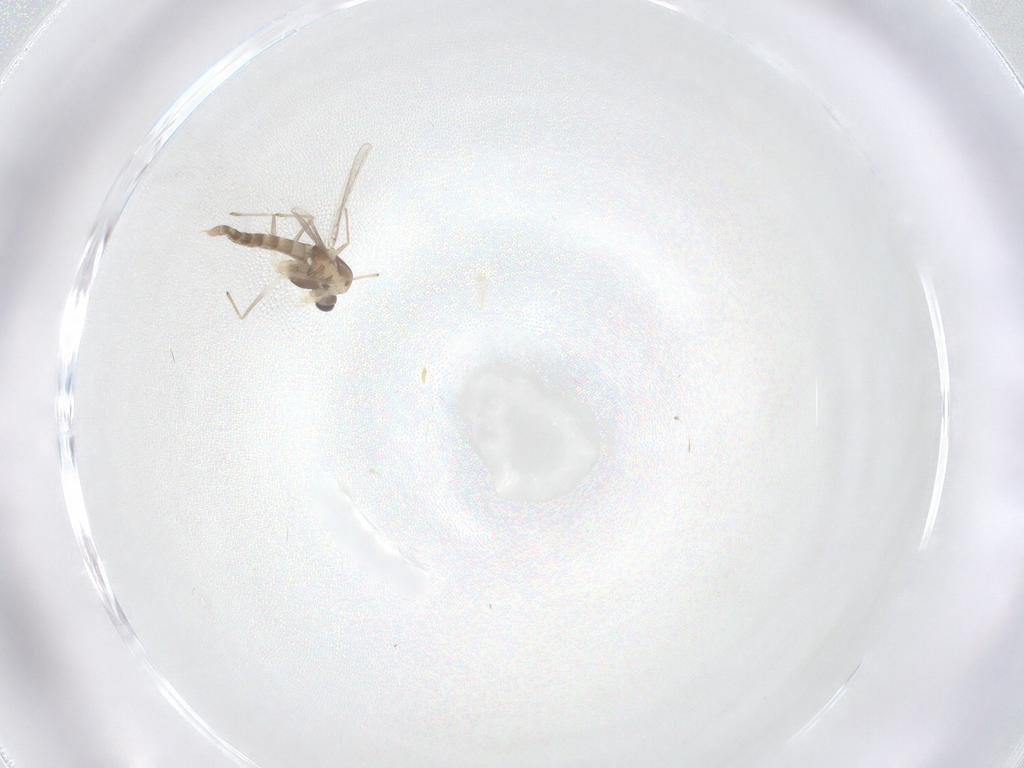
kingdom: Animalia
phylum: Arthropoda
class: Insecta
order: Diptera
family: Chironomidae
